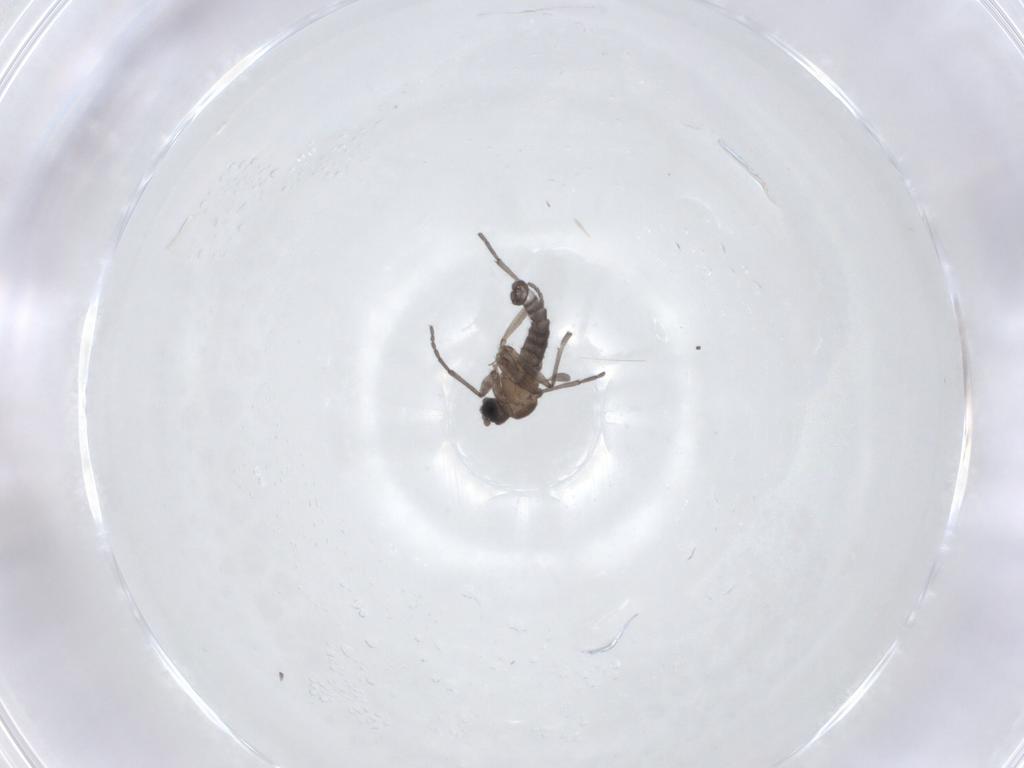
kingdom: Animalia
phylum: Arthropoda
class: Insecta
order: Diptera
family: Sciaridae
